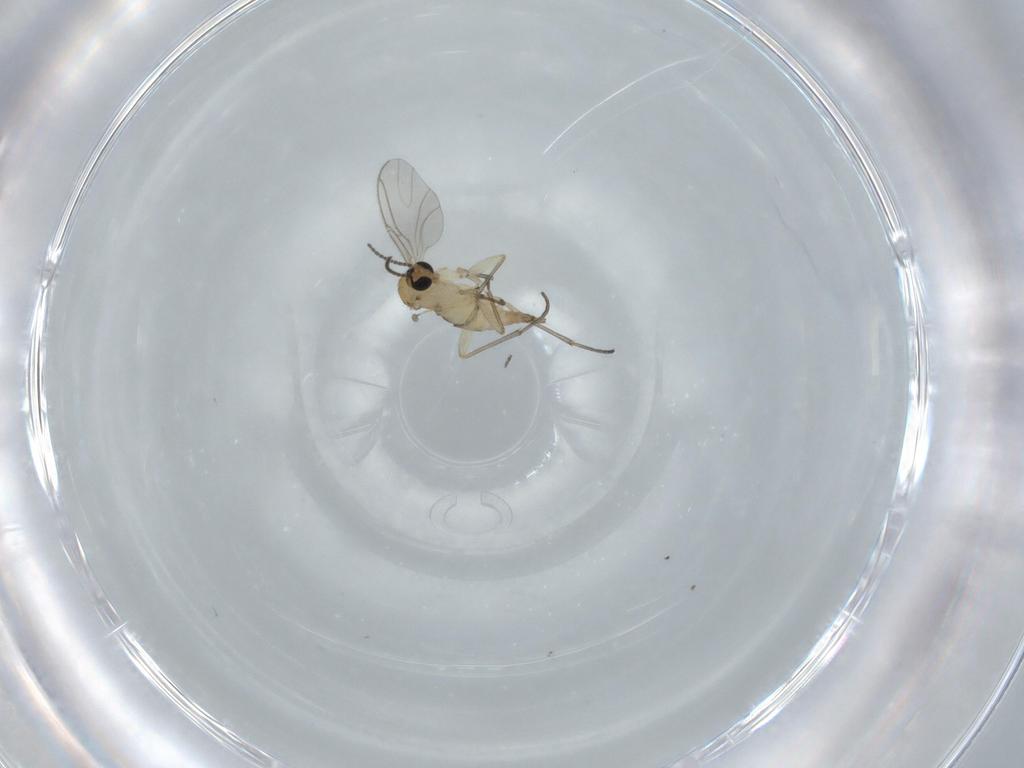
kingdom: Animalia
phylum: Arthropoda
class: Insecta
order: Diptera
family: Sciaridae
